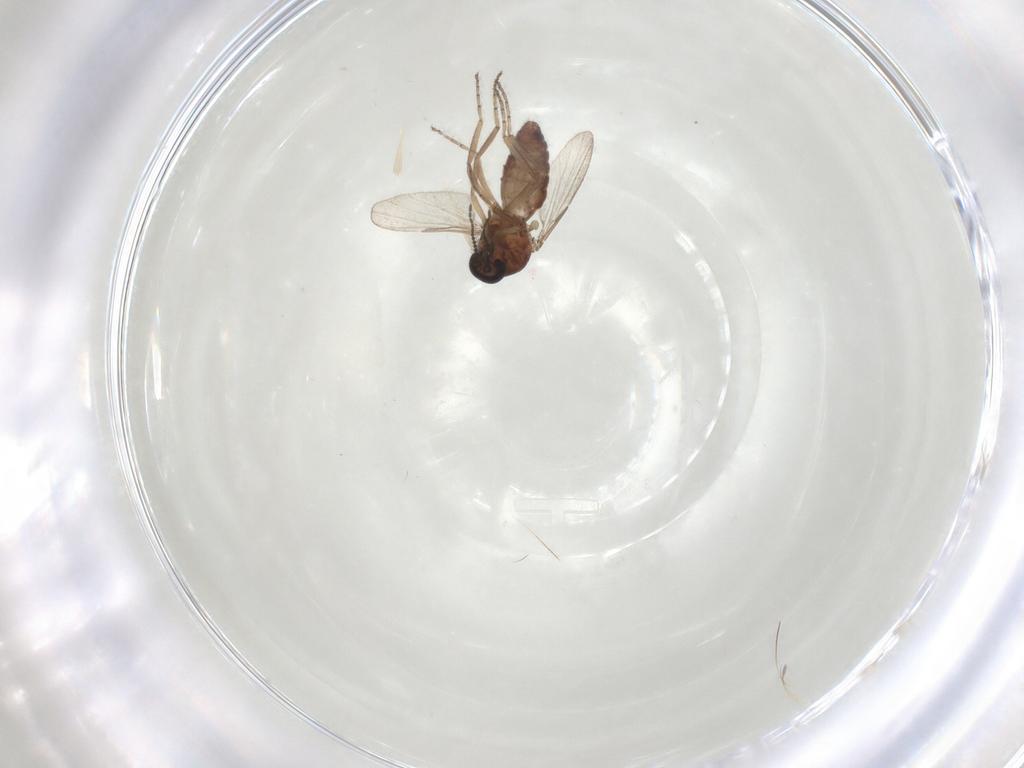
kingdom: Animalia
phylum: Arthropoda
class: Insecta
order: Diptera
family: Ceratopogonidae
